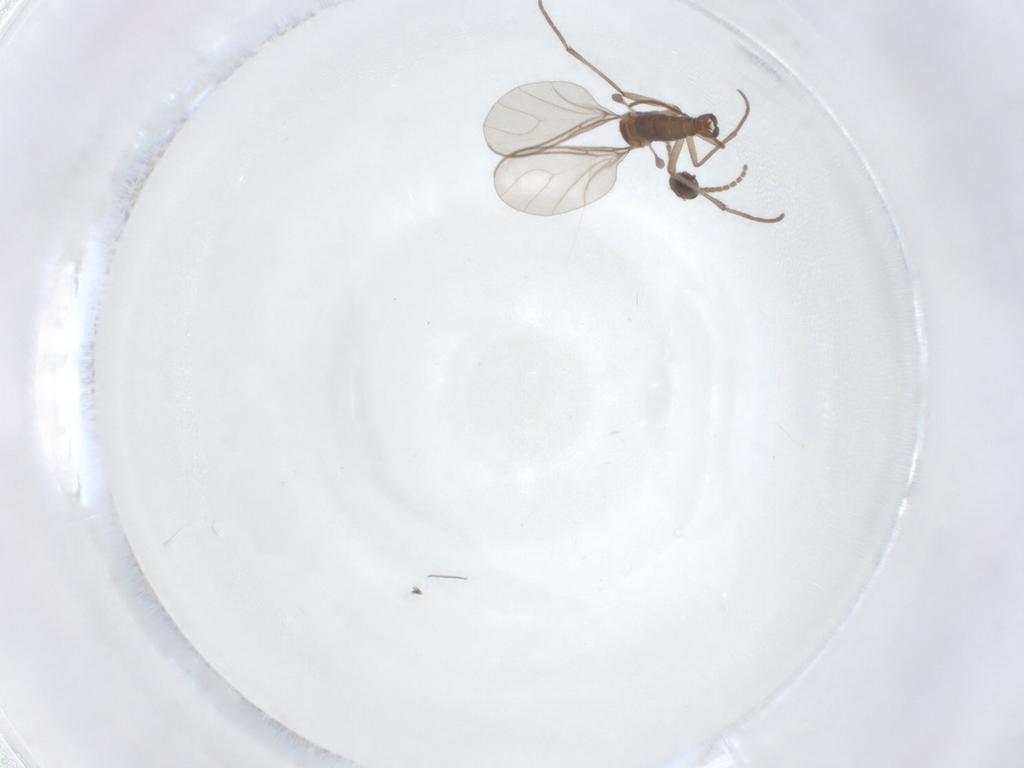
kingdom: Animalia
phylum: Arthropoda
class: Insecta
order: Diptera
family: Sciaridae
